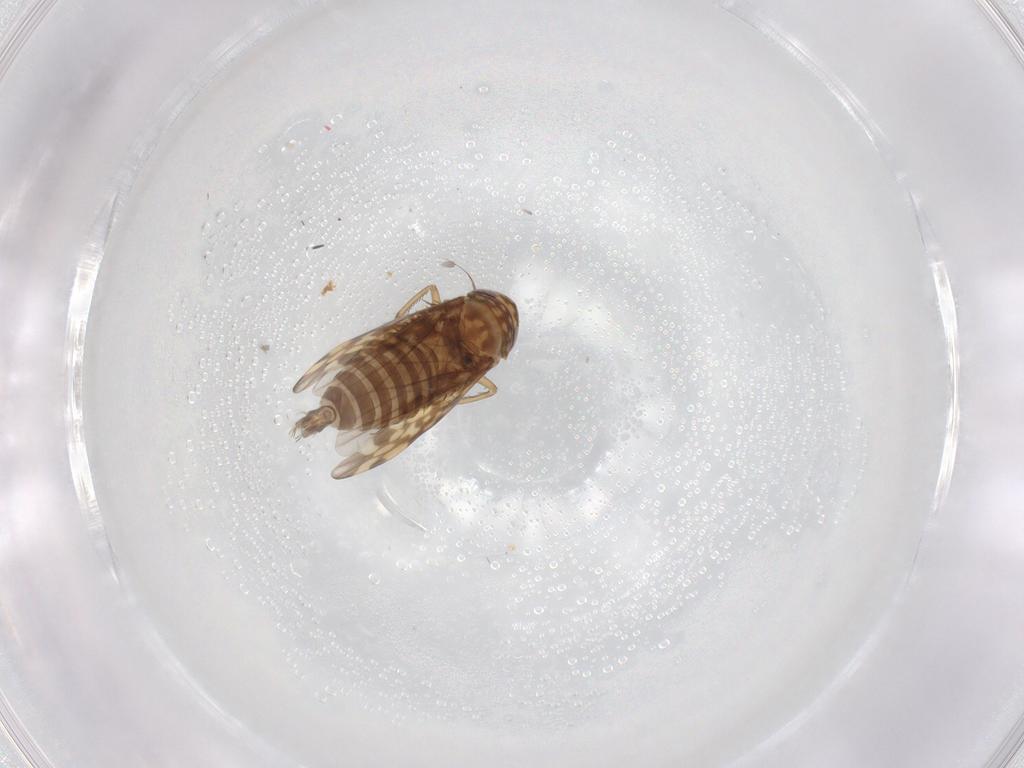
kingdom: Animalia
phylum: Arthropoda
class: Insecta
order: Hemiptera
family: Cicadellidae
